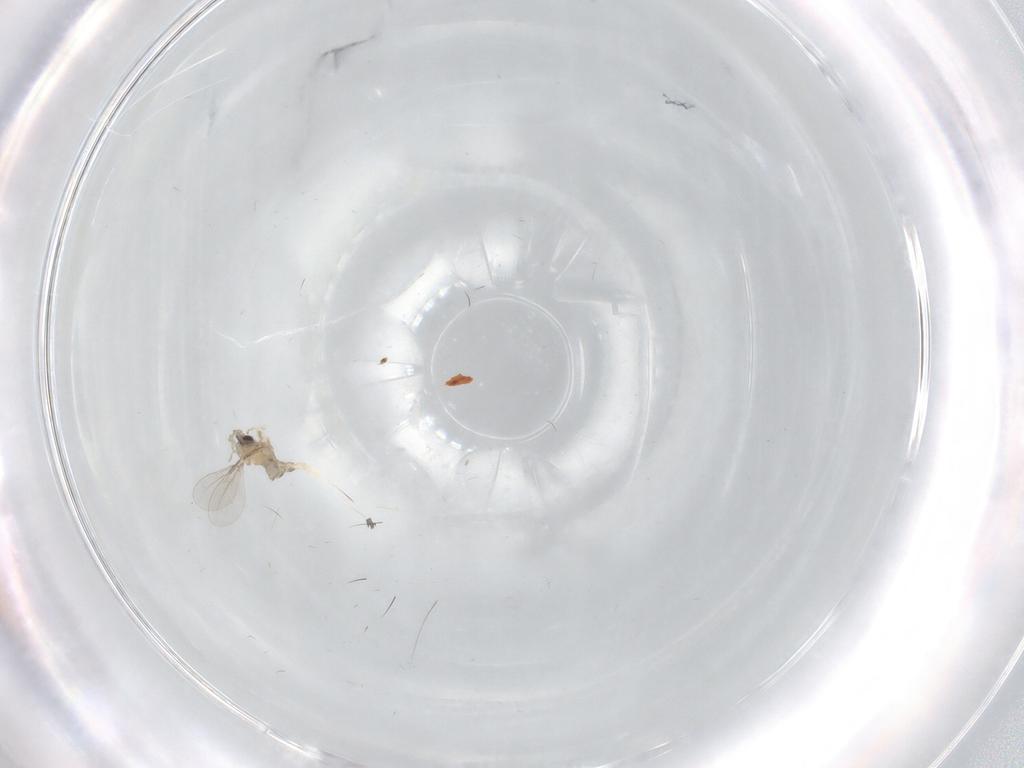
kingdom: Animalia
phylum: Arthropoda
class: Insecta
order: Diptera
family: Cecidomyiidae
